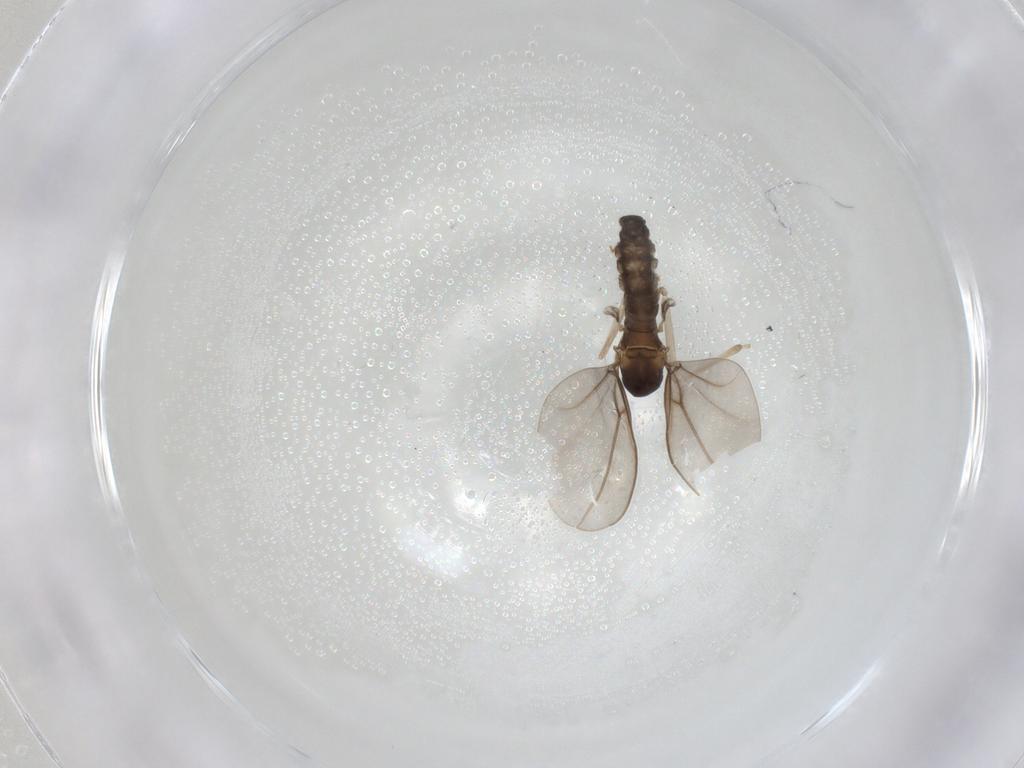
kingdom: Animalia
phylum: Arthropoda
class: Insecta
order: Diptera
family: Cecidomyiidae
